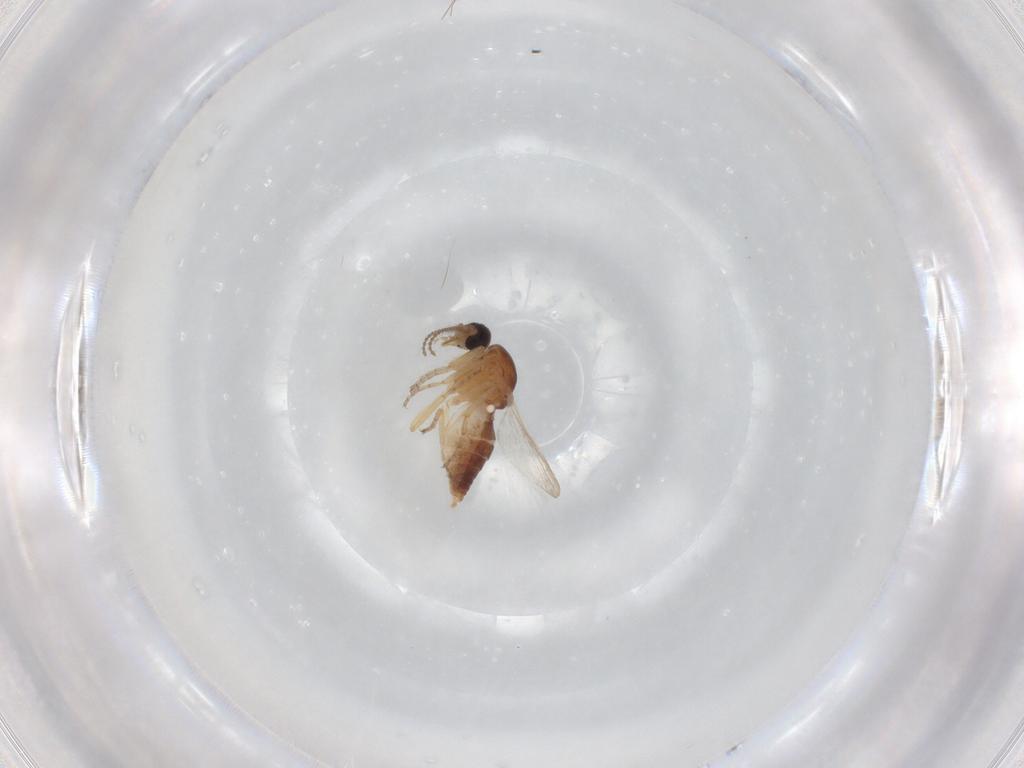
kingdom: Animalia
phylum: Arthropoda
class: Insecta
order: Diptera
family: Ceratopogonidae
